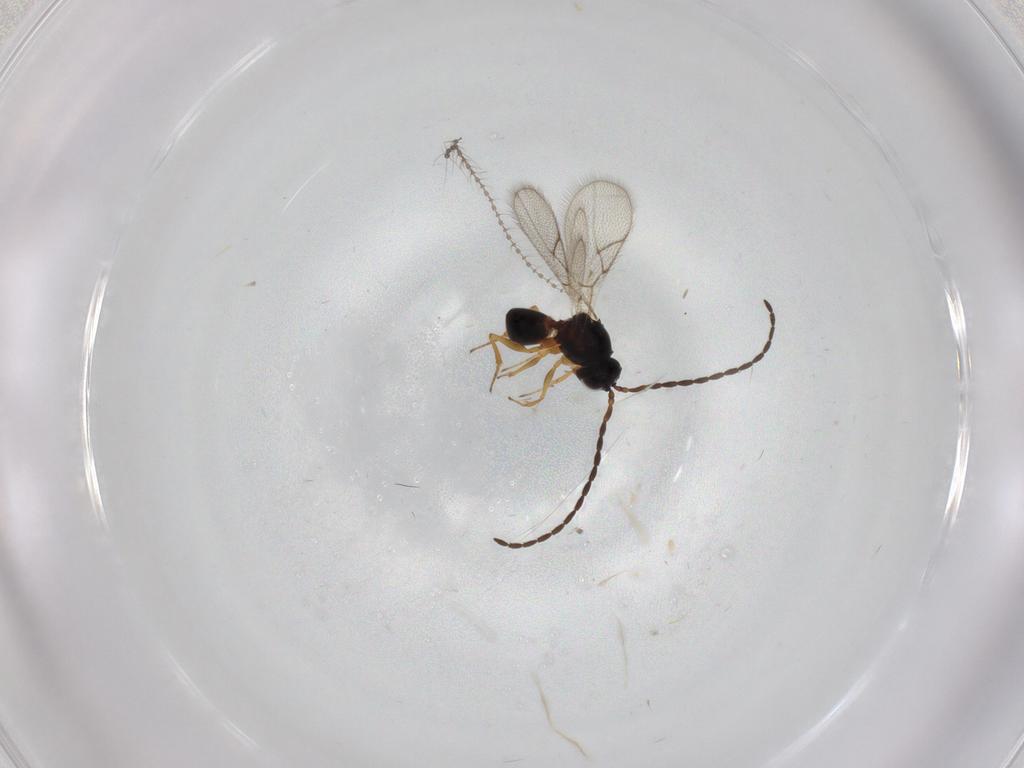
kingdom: Animalia
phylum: Arthropoda
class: Insecta
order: Hymenoptera
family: Figitidae
